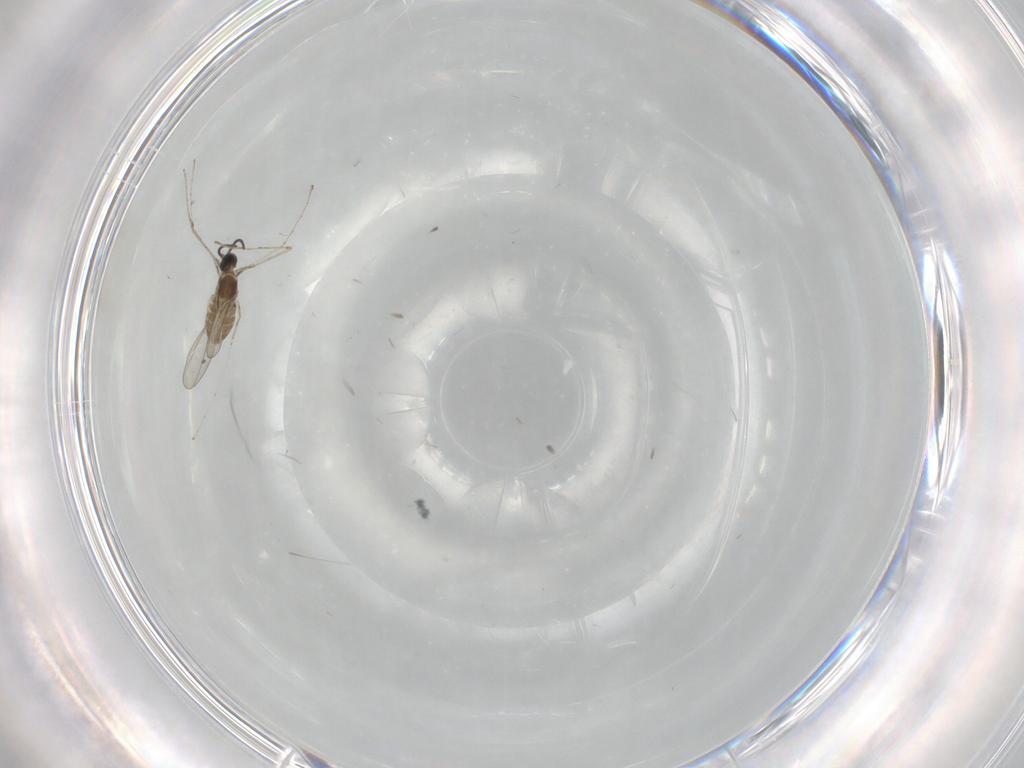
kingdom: Animalia
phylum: Arthropoda
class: Insecta
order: Diptera
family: Cecidomyiidae
